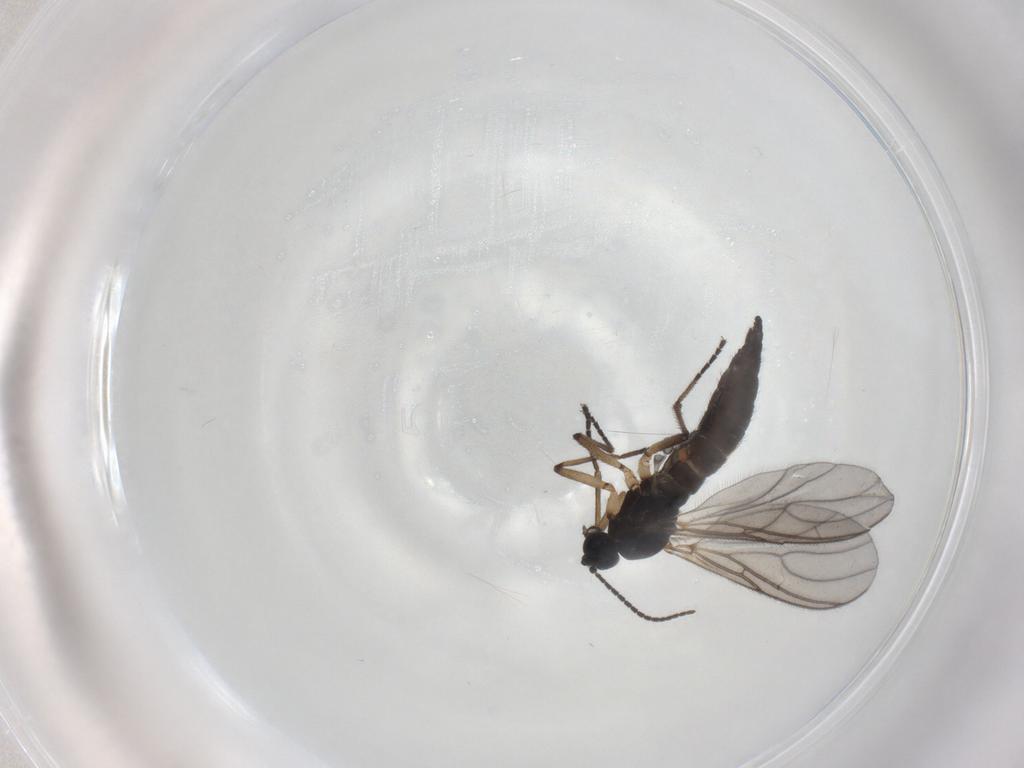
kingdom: Animalia
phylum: Arthropoda
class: Insecta
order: Diptera
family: Sciaridae
